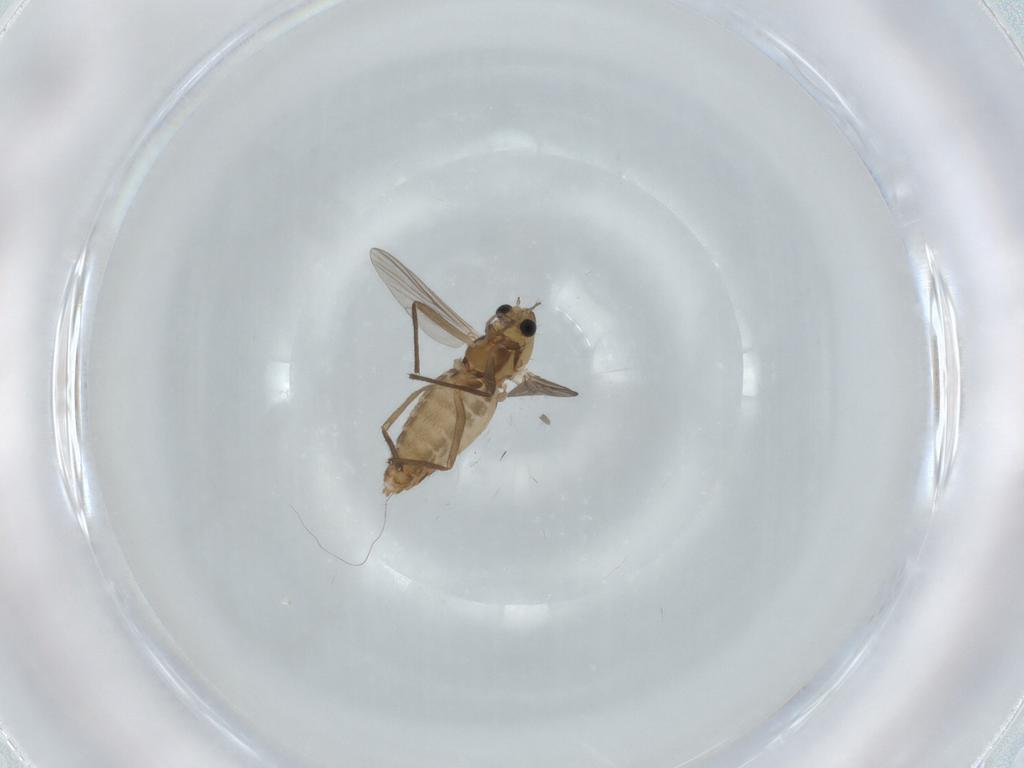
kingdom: Animalia
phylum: Arthropoda
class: Insecta
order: Diptera
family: Chironomidae
